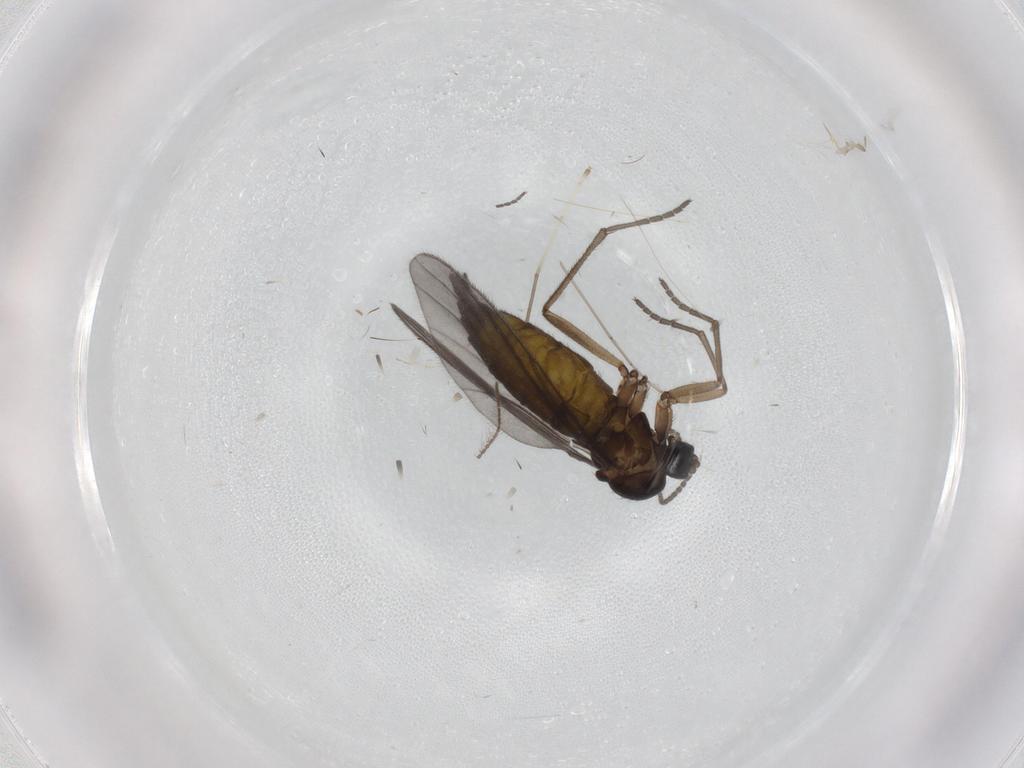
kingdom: Animalia
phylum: Arthropoda
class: Insecta
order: Diptera
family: Sciaridae
